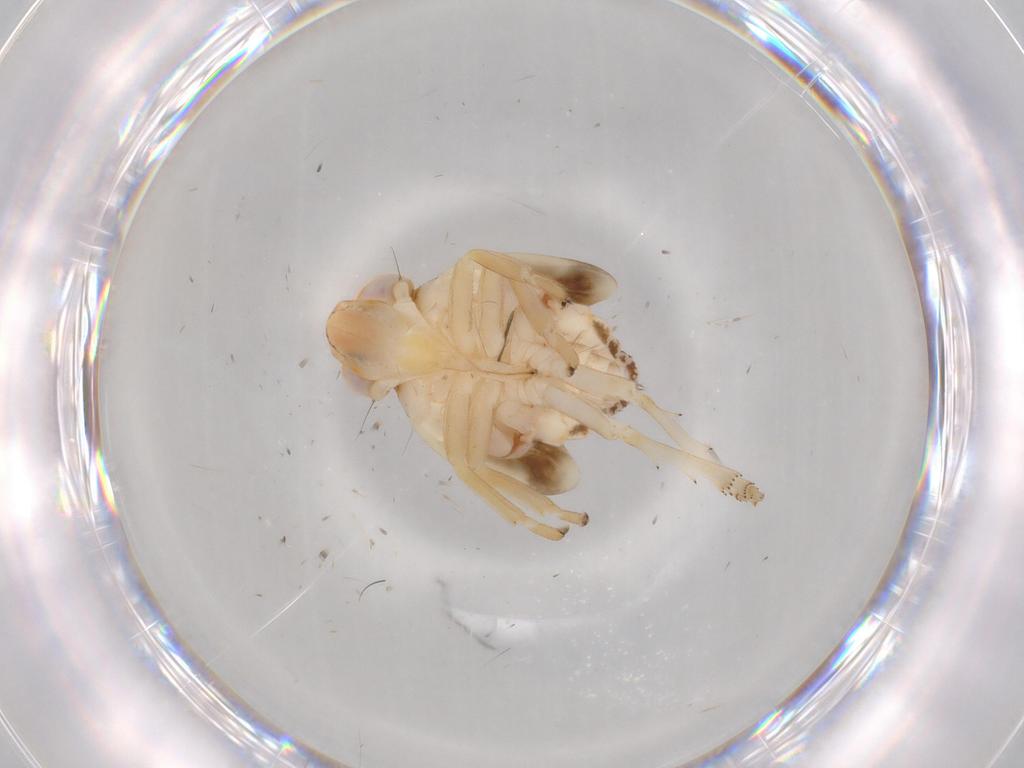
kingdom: Animalia
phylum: Arthropoda
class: Insecta
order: Hemiptera
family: Nogodinidae
